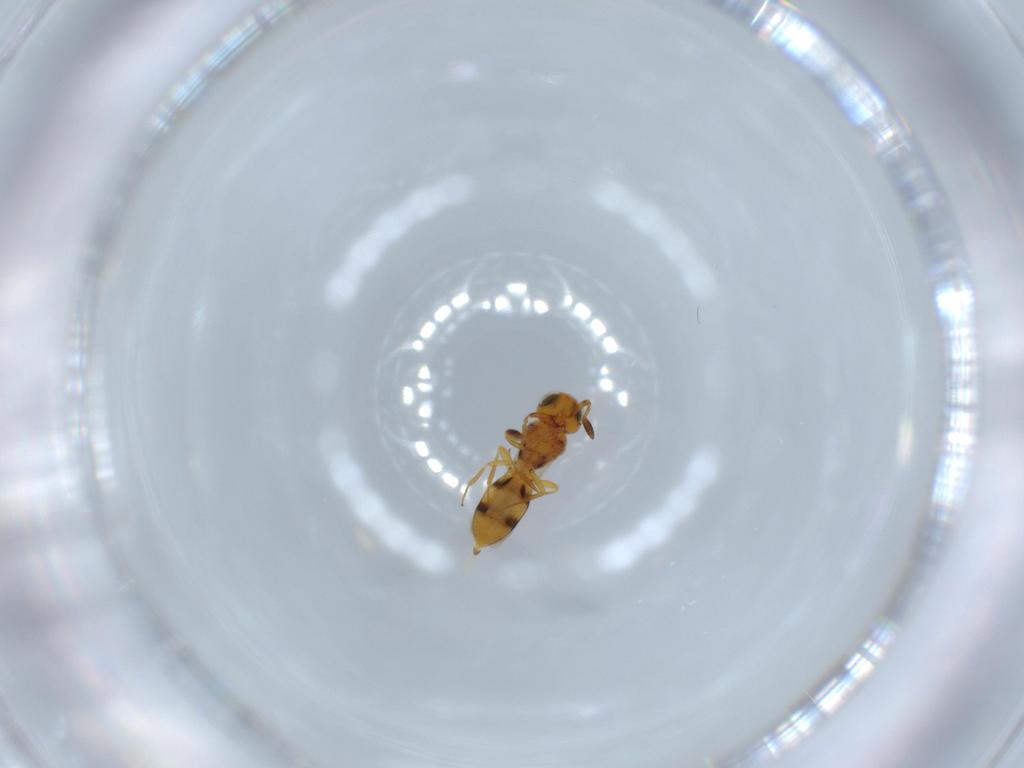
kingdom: Animalia
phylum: Arthropoda
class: Insecta
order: Hymenoptera
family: Scelionidae
